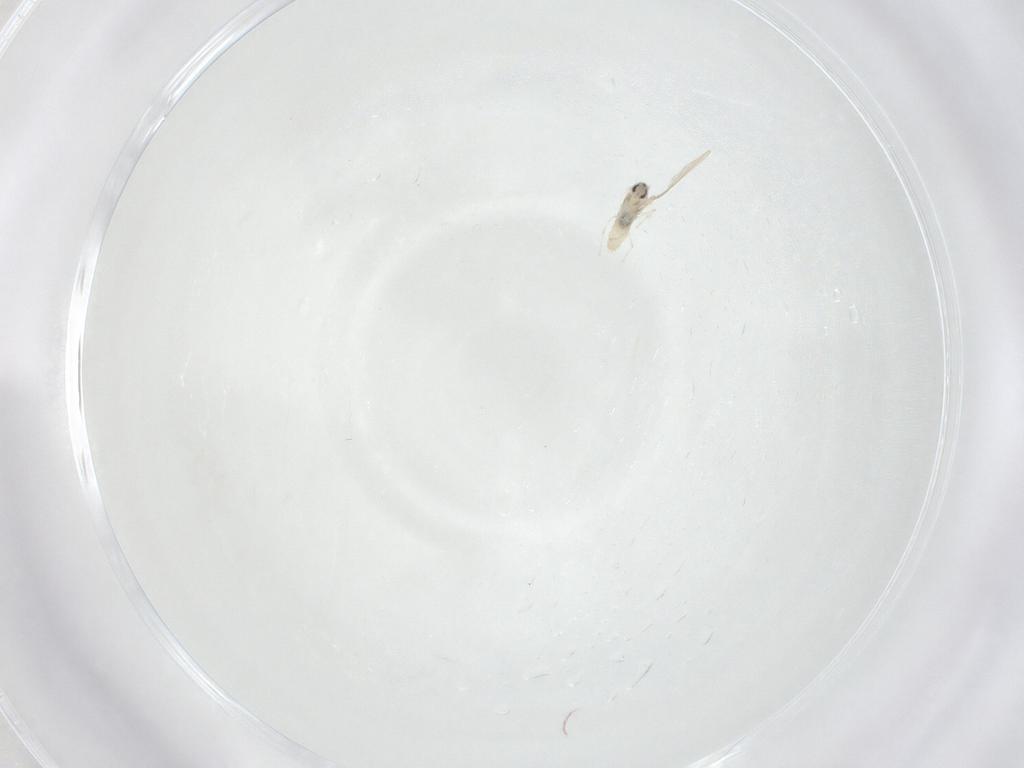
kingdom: Animalia
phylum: Arthropoda
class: Insecta
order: Diptera
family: Cecidomyiidae
